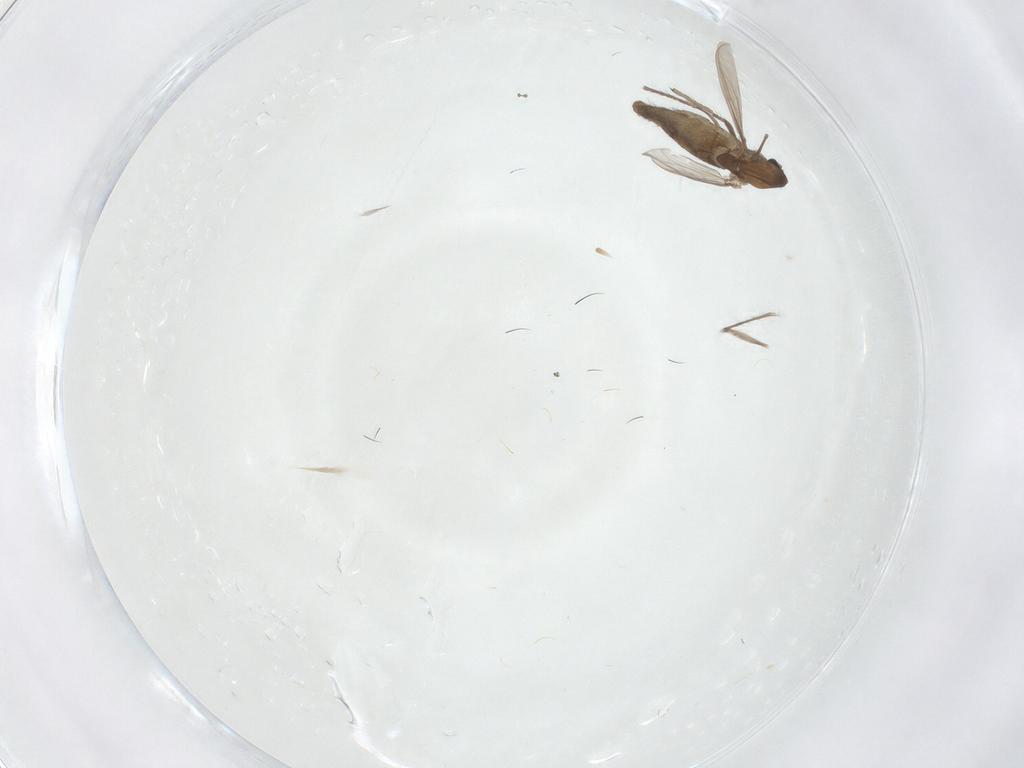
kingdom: Animalia
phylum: Arthropoda
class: Insecta
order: Diptera
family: Chironomidae
